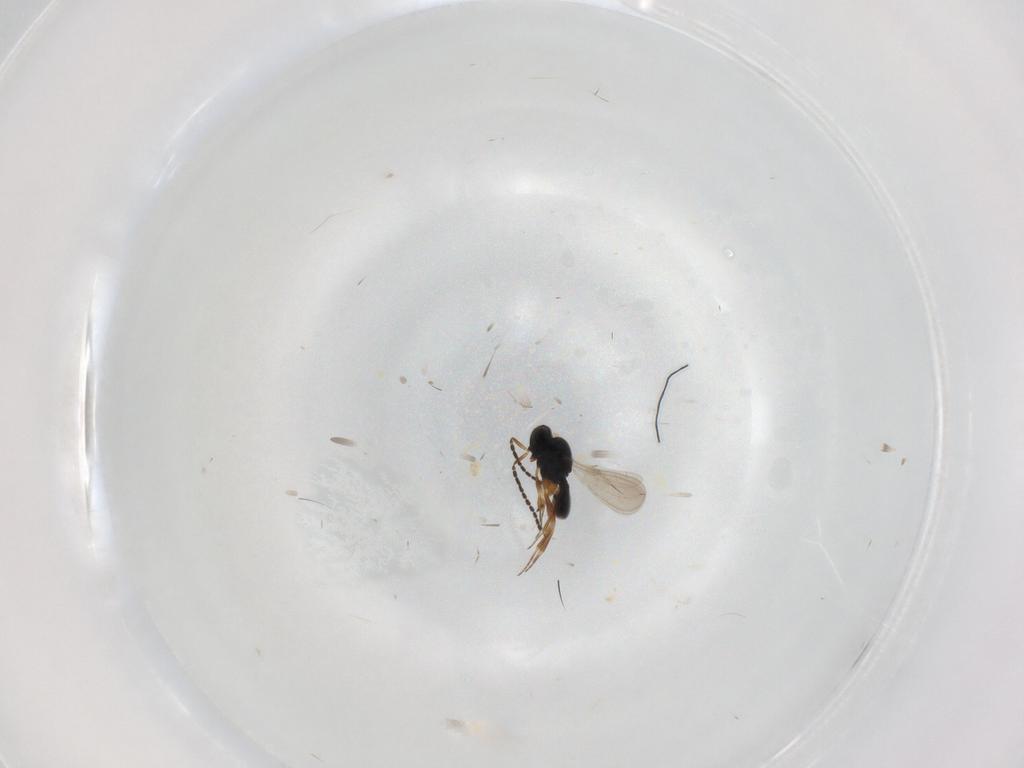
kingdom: Animalia
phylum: Arthropoda
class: Insecta
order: Hymenoptera
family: Scelionidae
